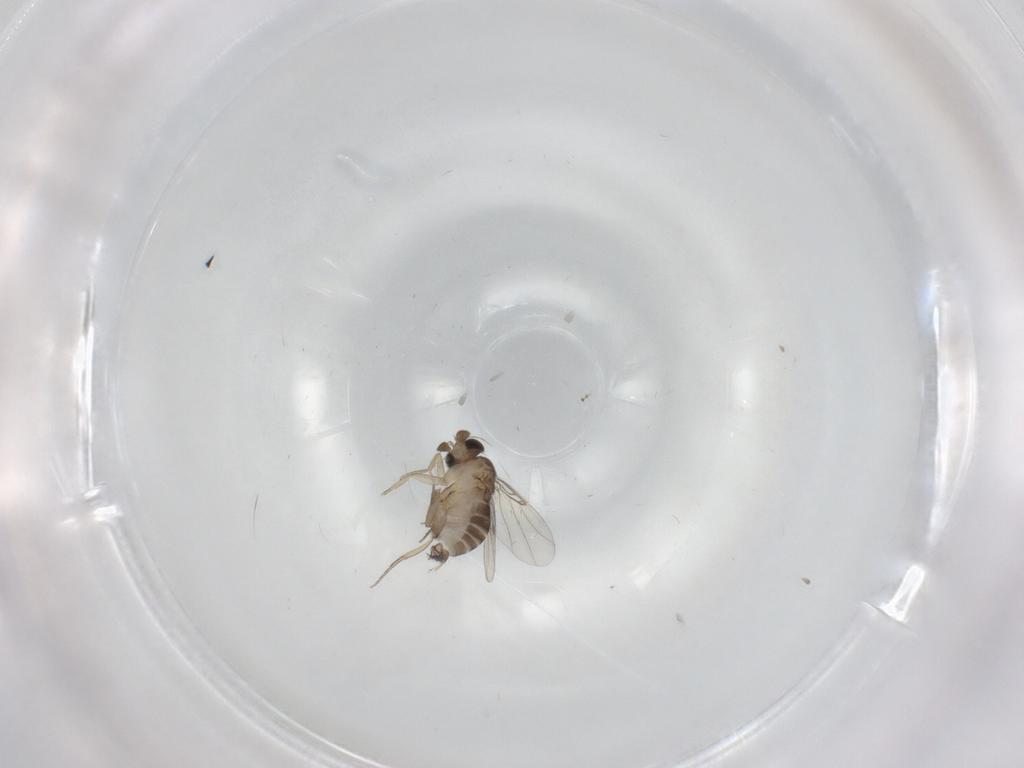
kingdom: Animalia
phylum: Arthropoda
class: Insecta
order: Diptera
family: Phoridae
